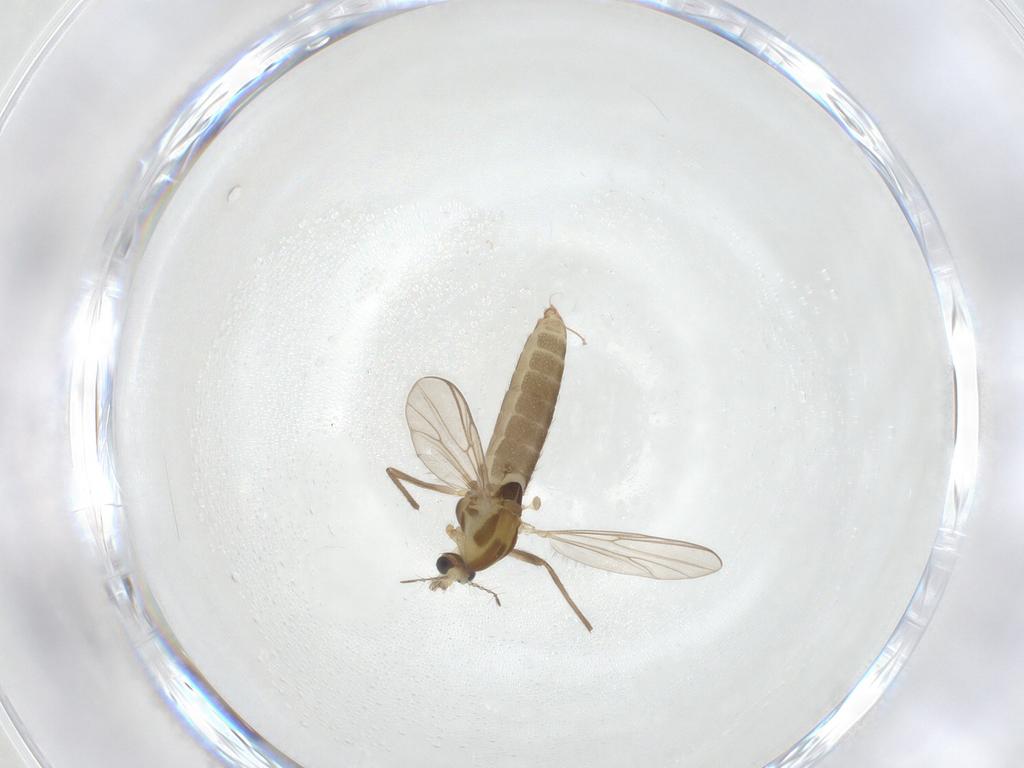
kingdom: Animalia
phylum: Arthropoda
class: Insecta
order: Diptera
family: Chironomidae
